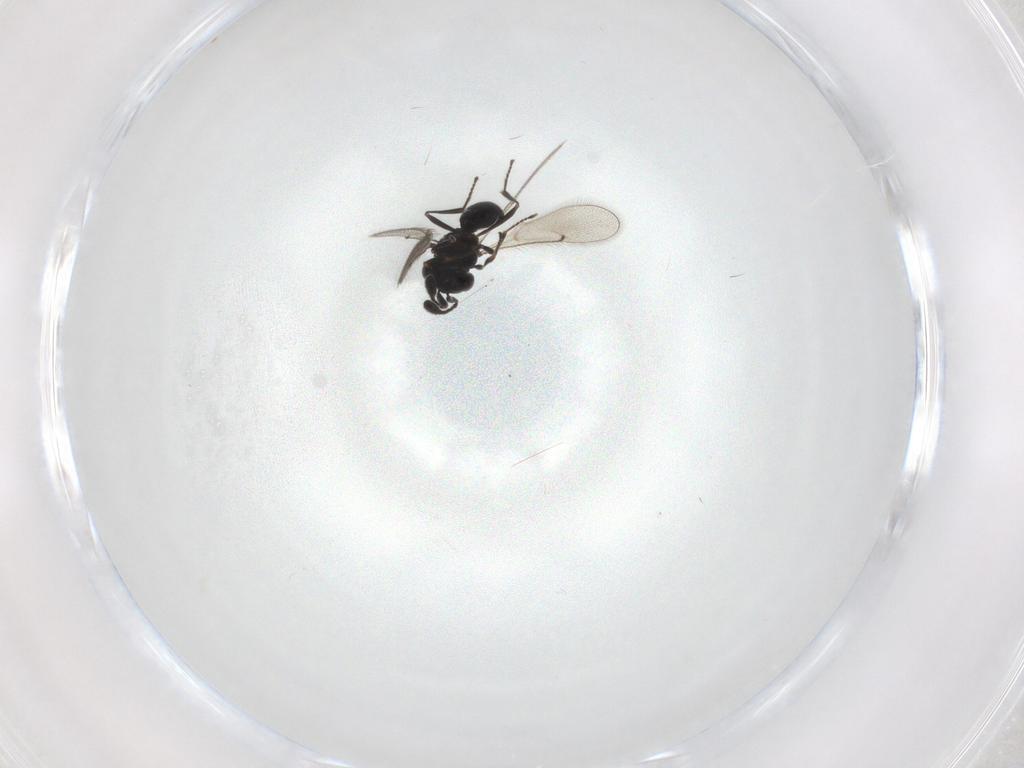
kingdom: Animalia
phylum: Arthropoda
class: Insecta
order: Hymenoptera
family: Scelionidae
